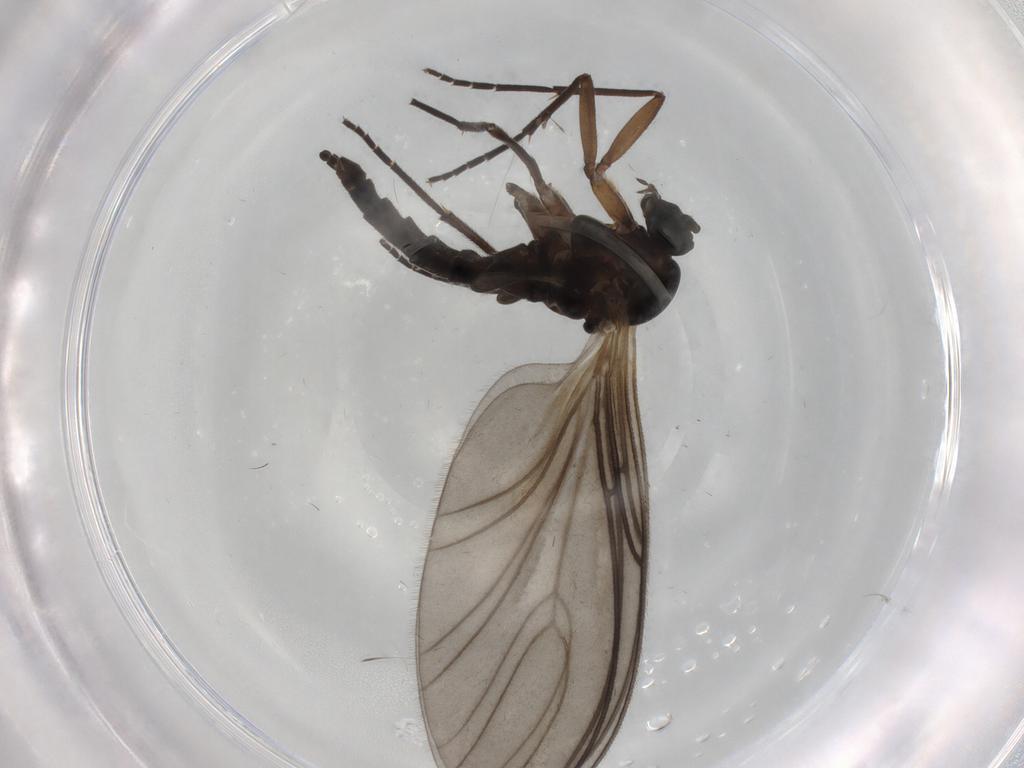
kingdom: Animalia
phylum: Arthropoda
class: Insecta
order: Diptera
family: Sciaridae
